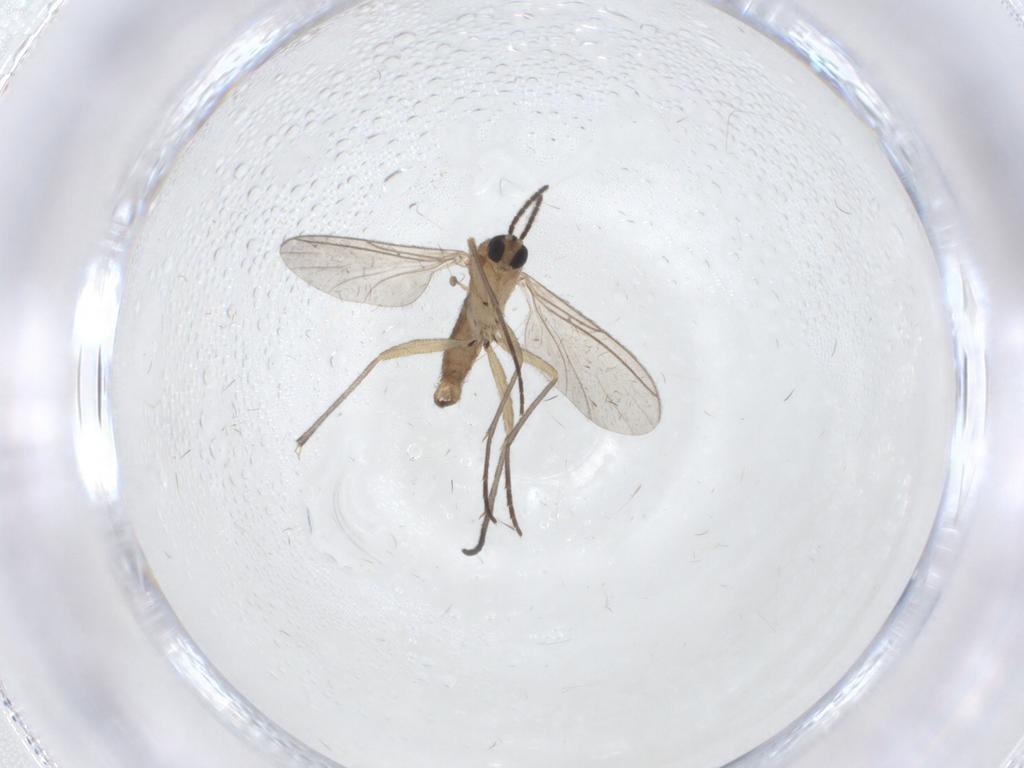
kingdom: Animalia
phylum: Arthropoda
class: Insecta
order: Diptera
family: Sciaridae
